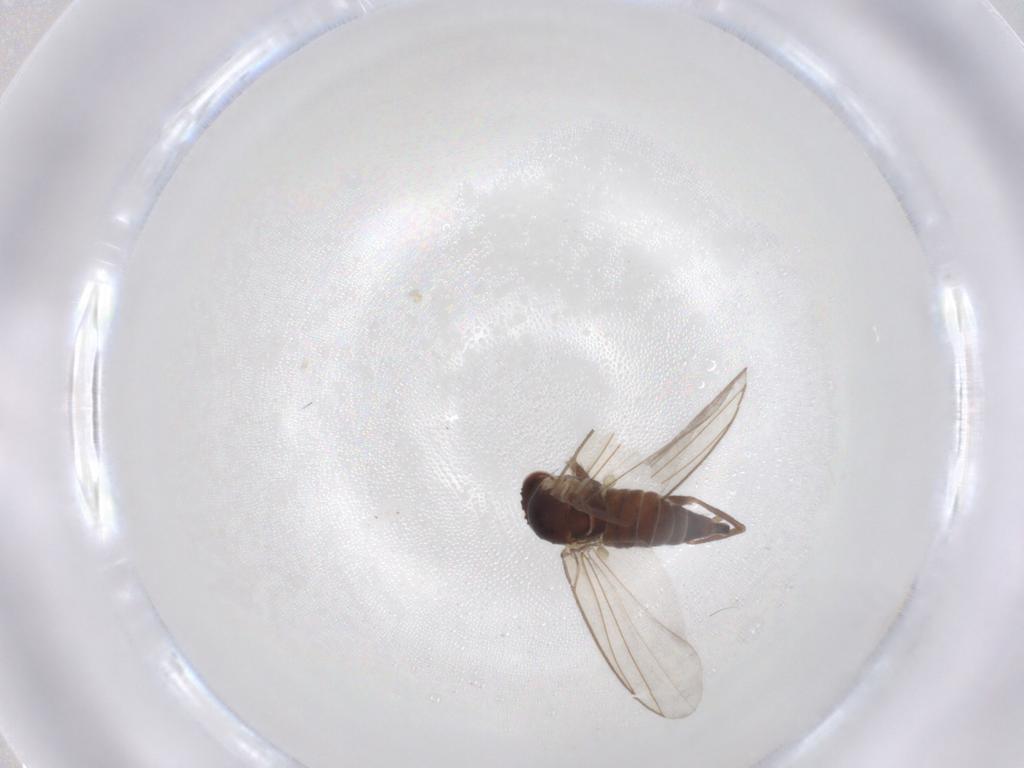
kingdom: Animalia
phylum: Arthropoda
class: Insecta
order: Diptera
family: Agromyzidae
